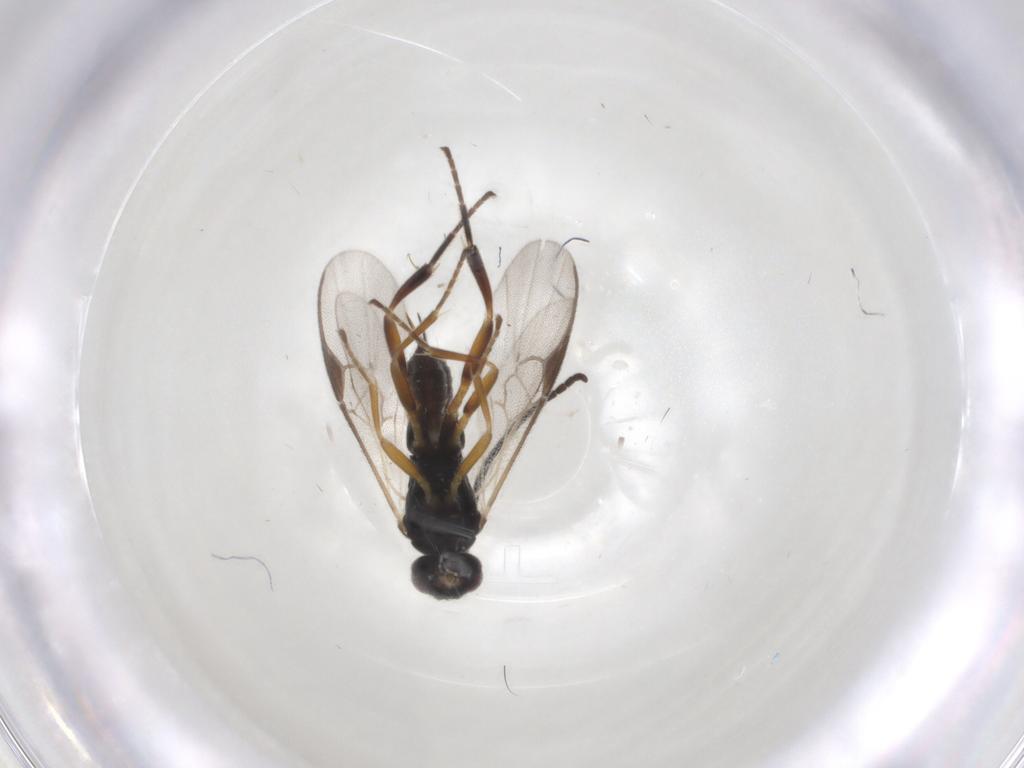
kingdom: Animalia
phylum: Arthropoda
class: Insecta
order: Hymenoptera
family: Braconidae
